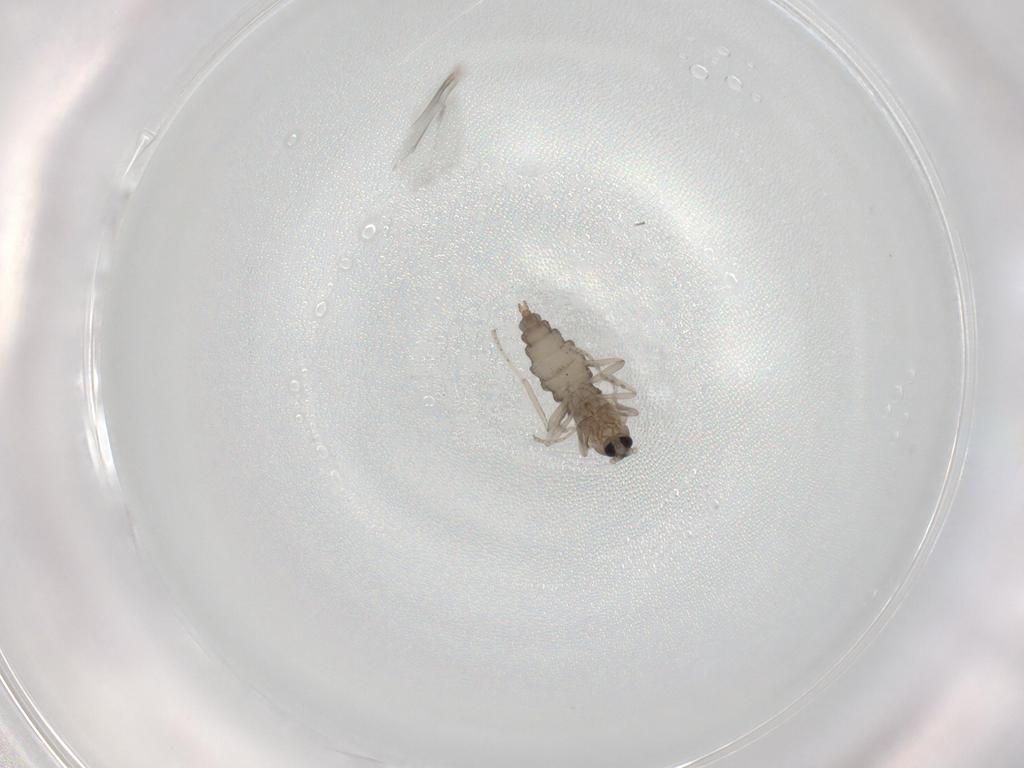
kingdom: Animalia
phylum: Arthropoda
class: Insecta
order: Diptera
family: Cecidomyiidae
